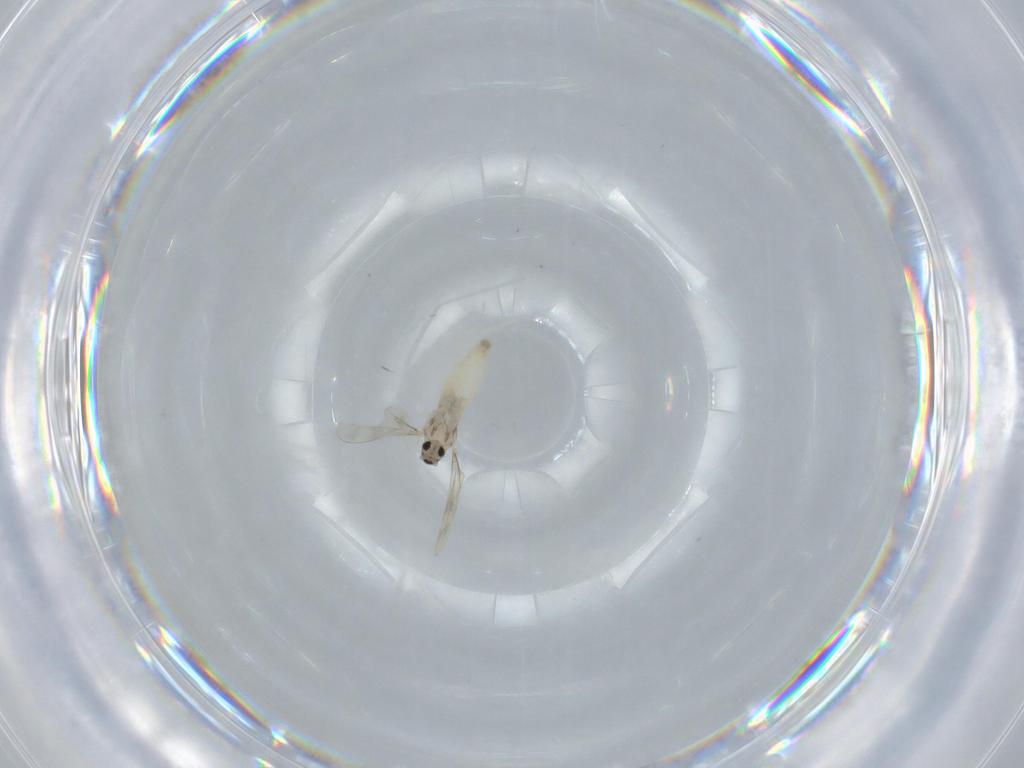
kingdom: Animalia
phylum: Arthropoda
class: Insecta
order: Diptera
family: Cecidomyiidae
